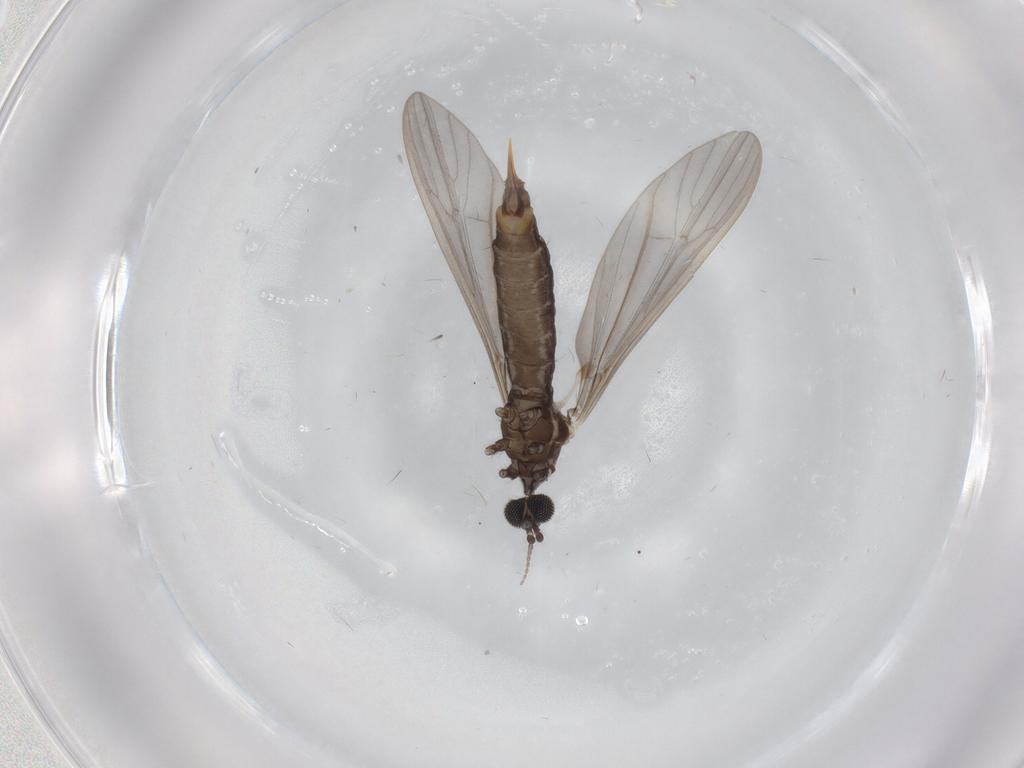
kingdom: Animalia
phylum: Arthropoda
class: Insecta
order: Diptera
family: Limoniidae
